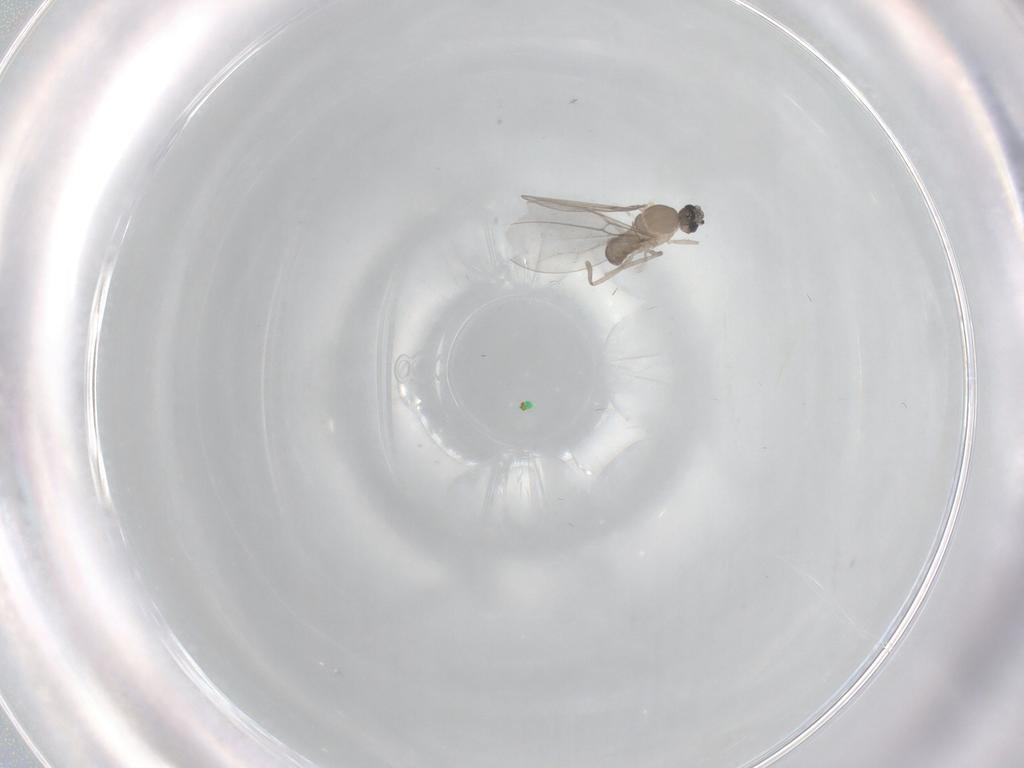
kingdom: Animalia
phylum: Arthropoda
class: Insecta
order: Diptera
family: Cecidomyiidae
